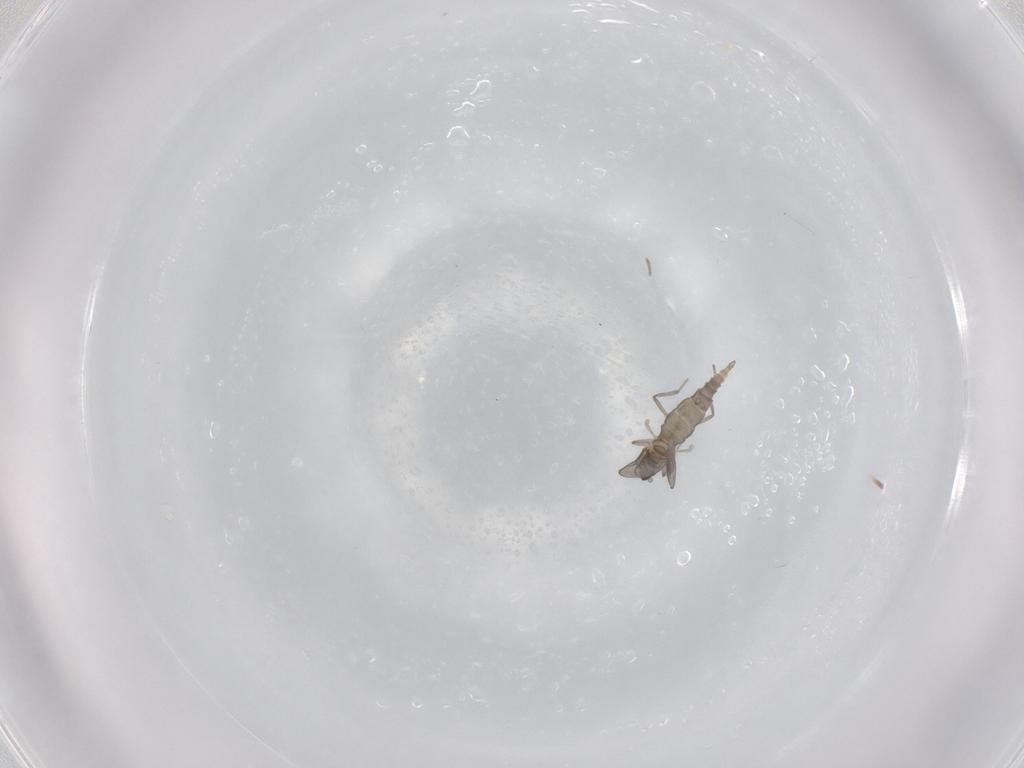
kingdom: Animalia
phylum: Arthropoda
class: Insecta
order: Diptera
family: Cecidomyiidae
